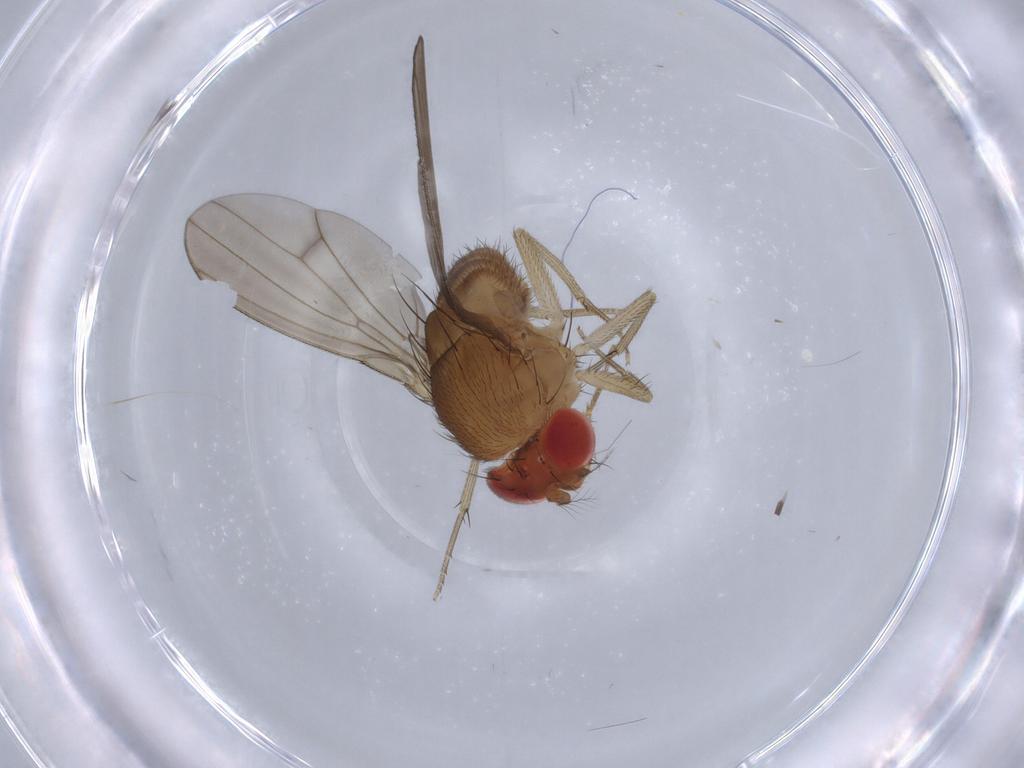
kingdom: Animalia
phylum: Arthropoda
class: Insecta
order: Diptera
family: Drosophilidae
